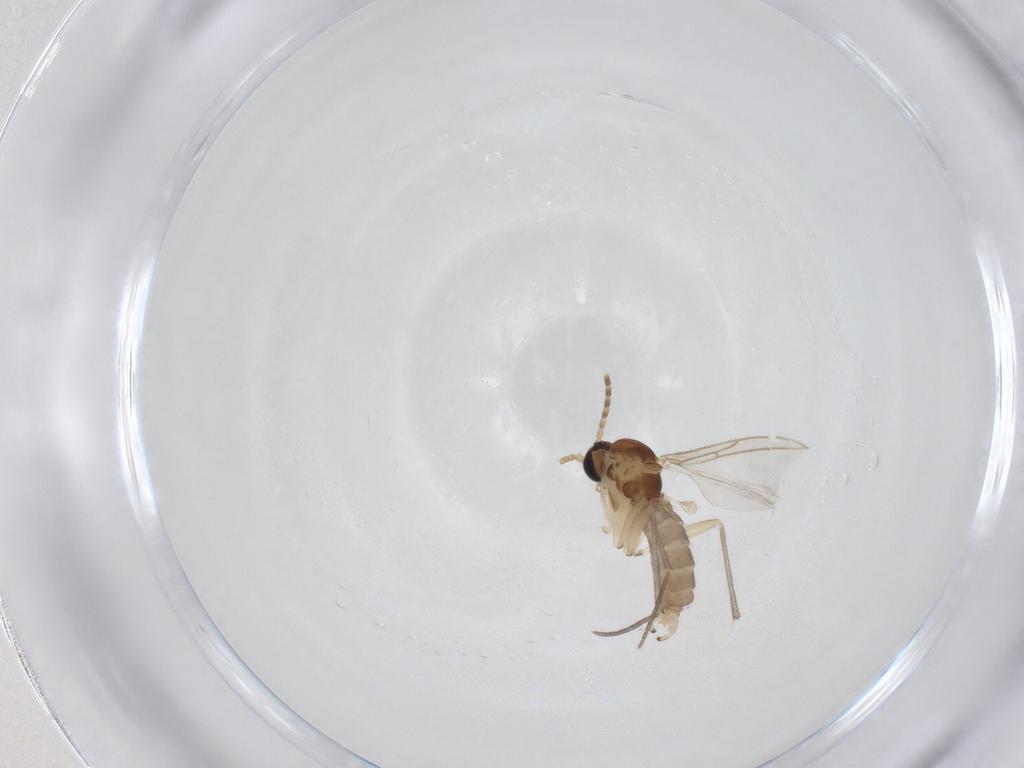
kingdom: Animalia
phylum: Arthropoda
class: Insecta
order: Diptera
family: Sciaridae
